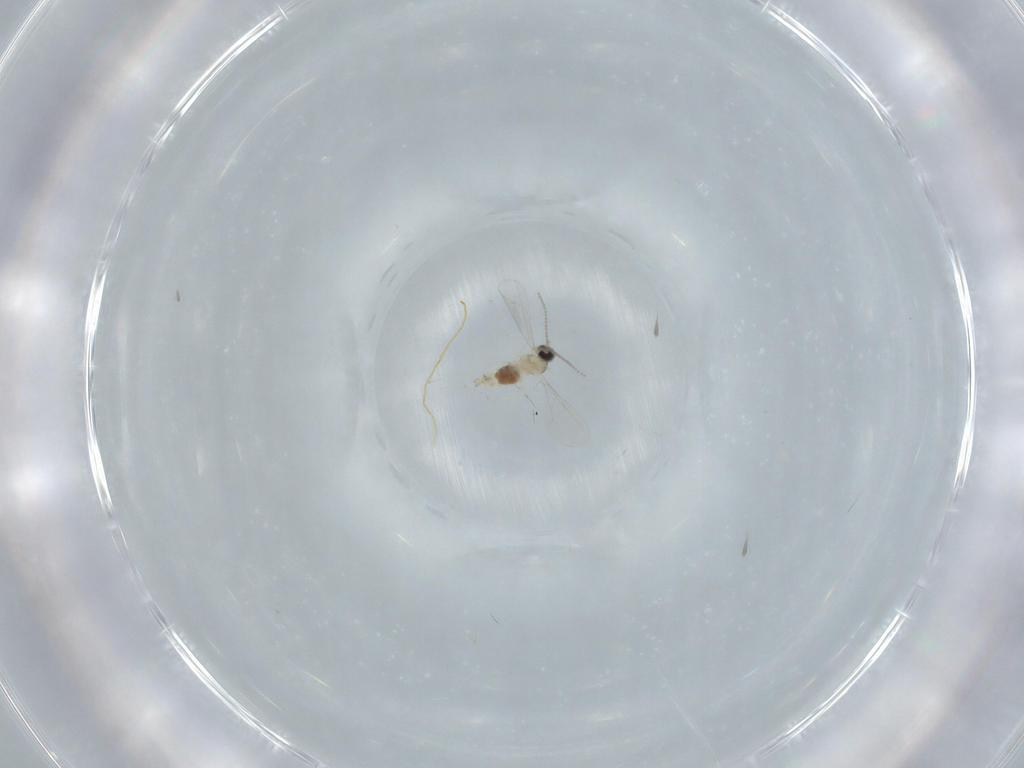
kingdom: Animalia
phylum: Arthropoda
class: Insecta
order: Diptera
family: Cecidomyiidae
